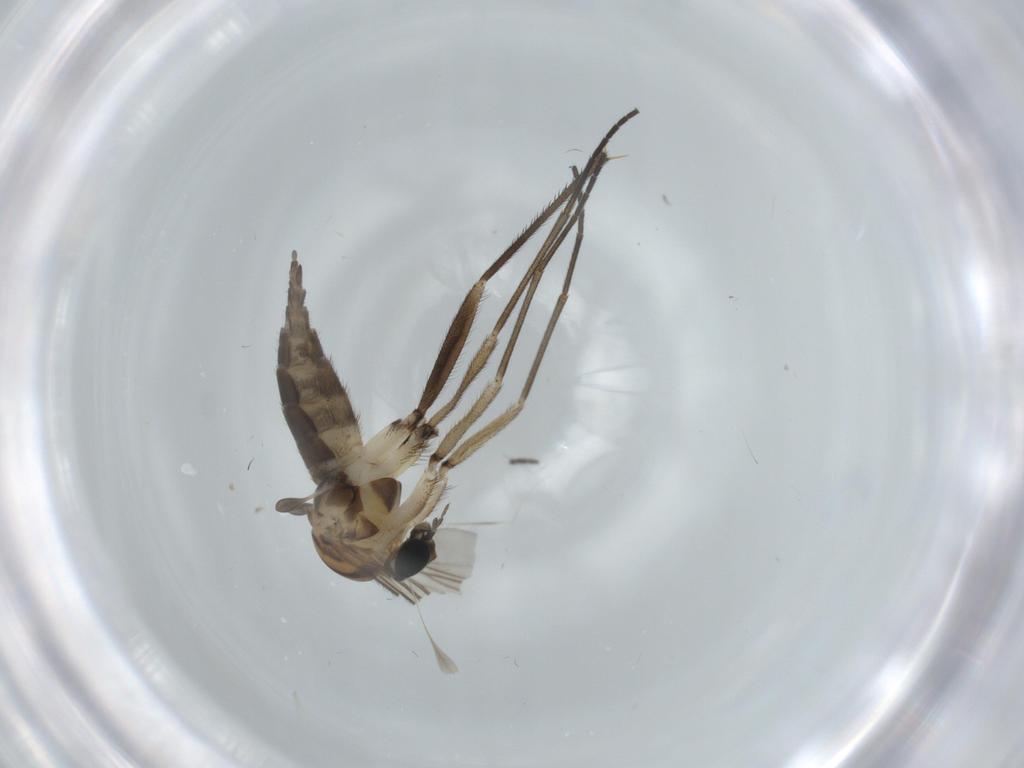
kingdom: Animalia
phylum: Arthropoda
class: Insecta
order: Diptera
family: Sciaridae
